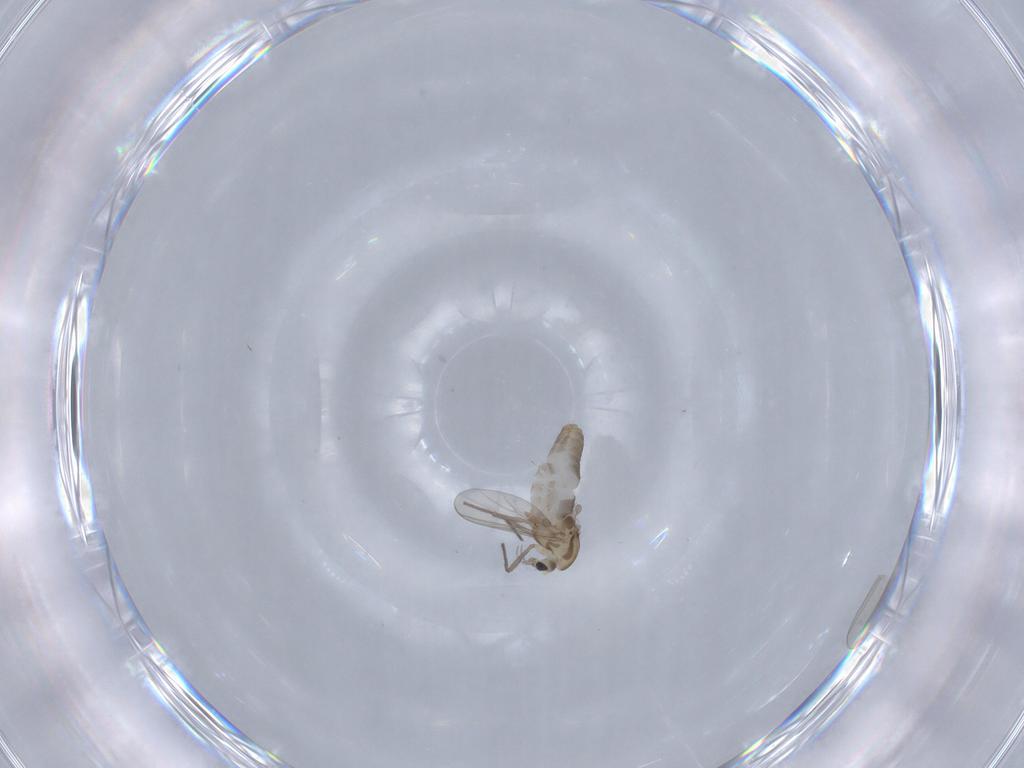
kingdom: Animalia
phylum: Arthropoda
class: Insecta
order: Diptera
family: Chironomidae
